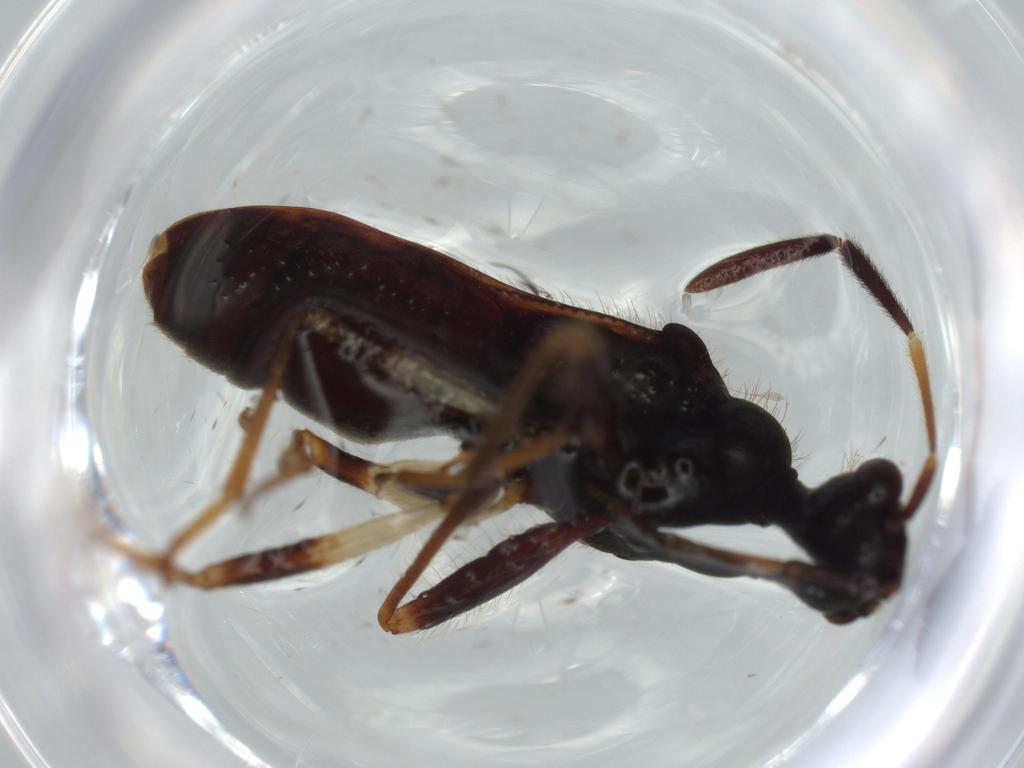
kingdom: Animalia
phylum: Arthropoda
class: Insecta
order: Hemiptera
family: Rhyparochromidae
